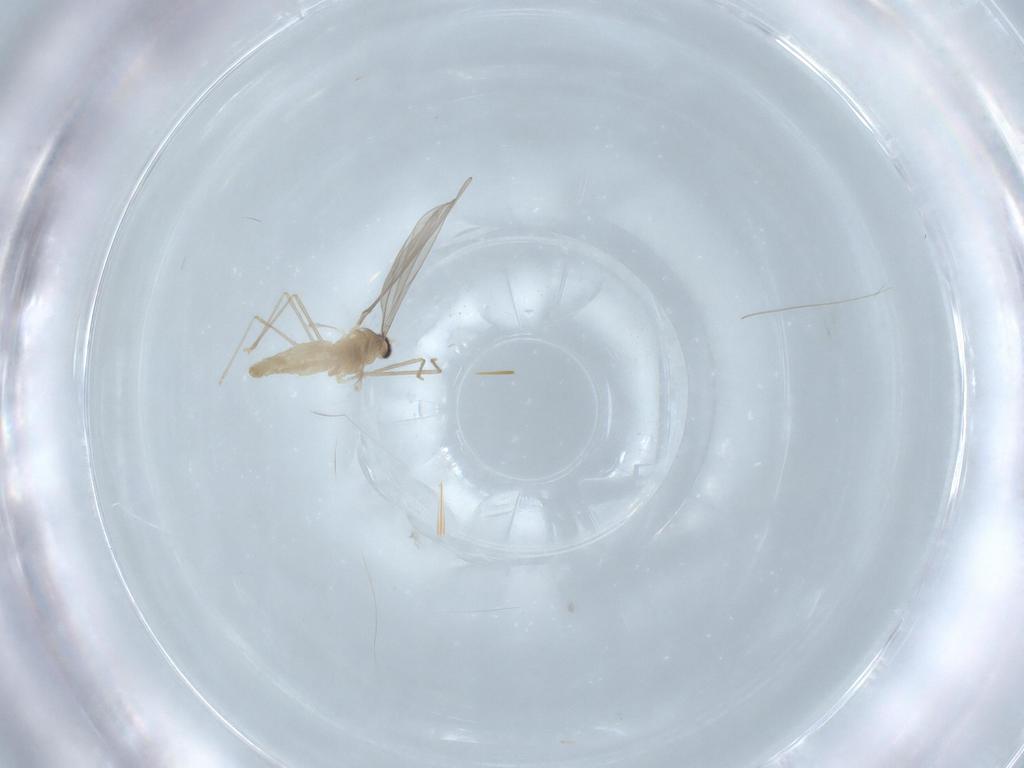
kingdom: Animalia
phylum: Arthropoda
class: Insecta
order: Diptera
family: Cecidomyiidae
